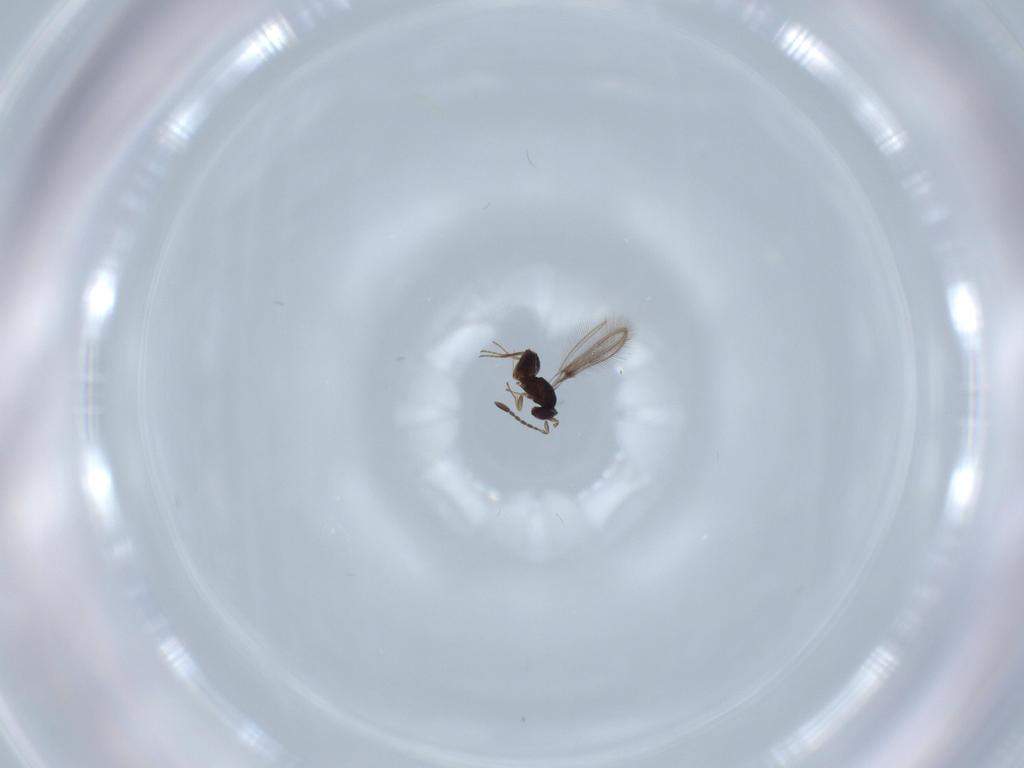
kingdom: Animalia
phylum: Arthropoda
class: Insecta
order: Hymenoptera
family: Mymaridae
